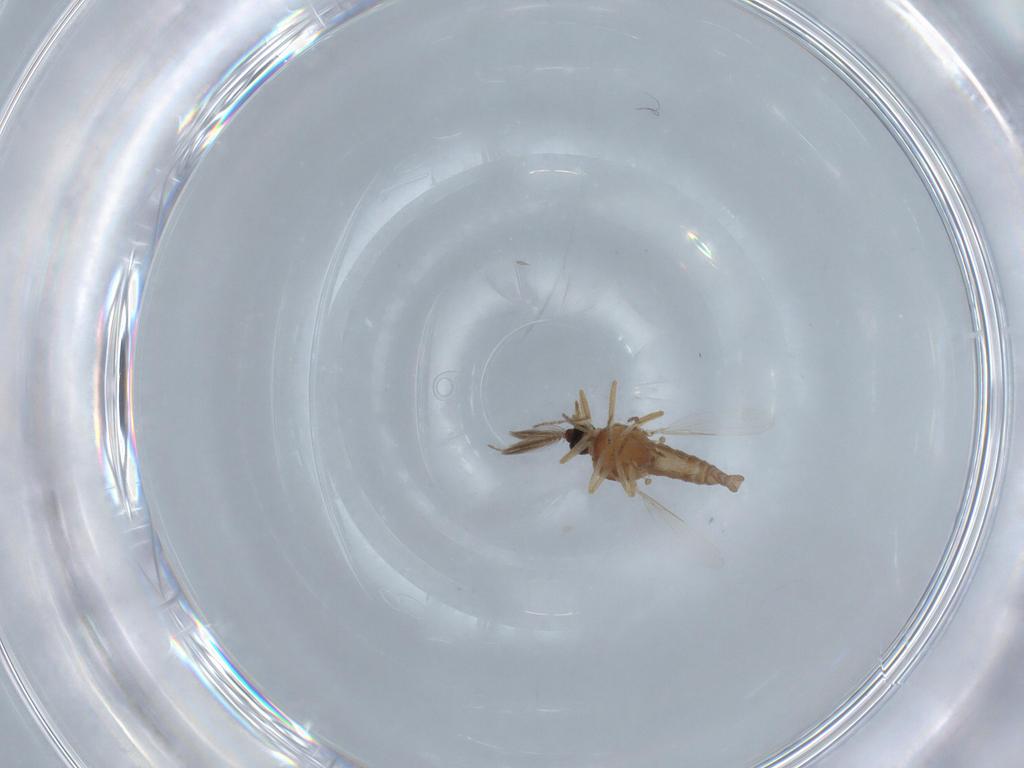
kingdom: Animalia
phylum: Arthropoda
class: Insecta
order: Diptera
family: Ceratopogonidae
